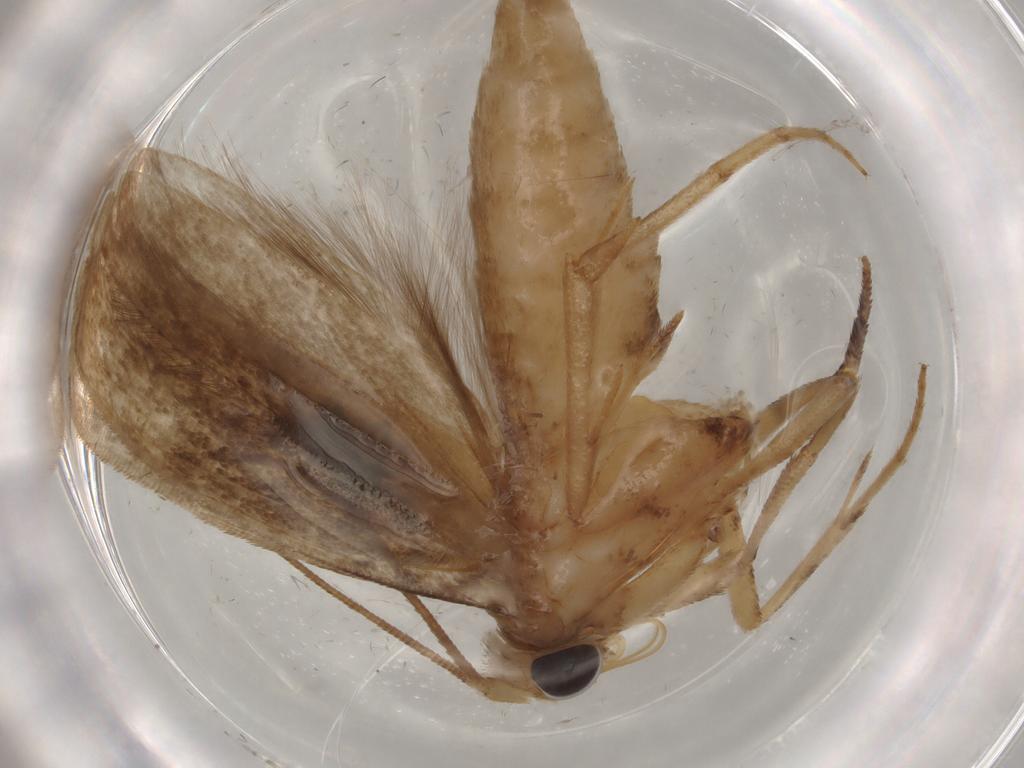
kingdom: Animalia
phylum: Arthropoda
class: Insecta
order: Lepidoptera
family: Yponomeutidae
